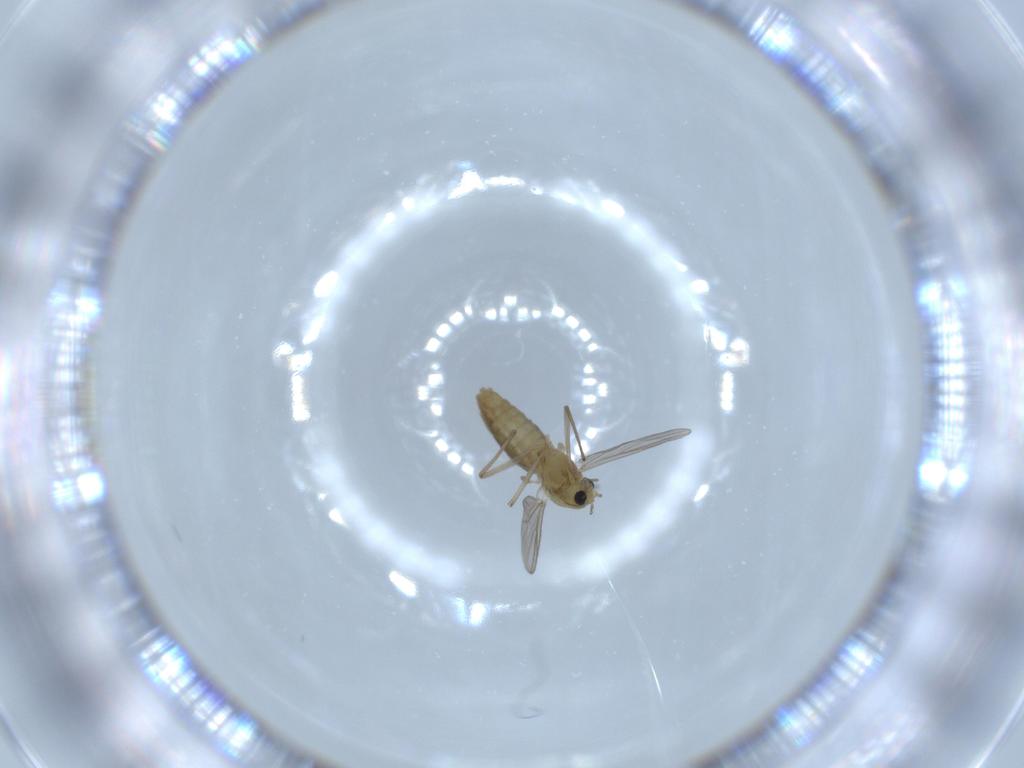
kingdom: Animalia
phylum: Arthropoda
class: Insecta
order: Diptera
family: Chironomidae
